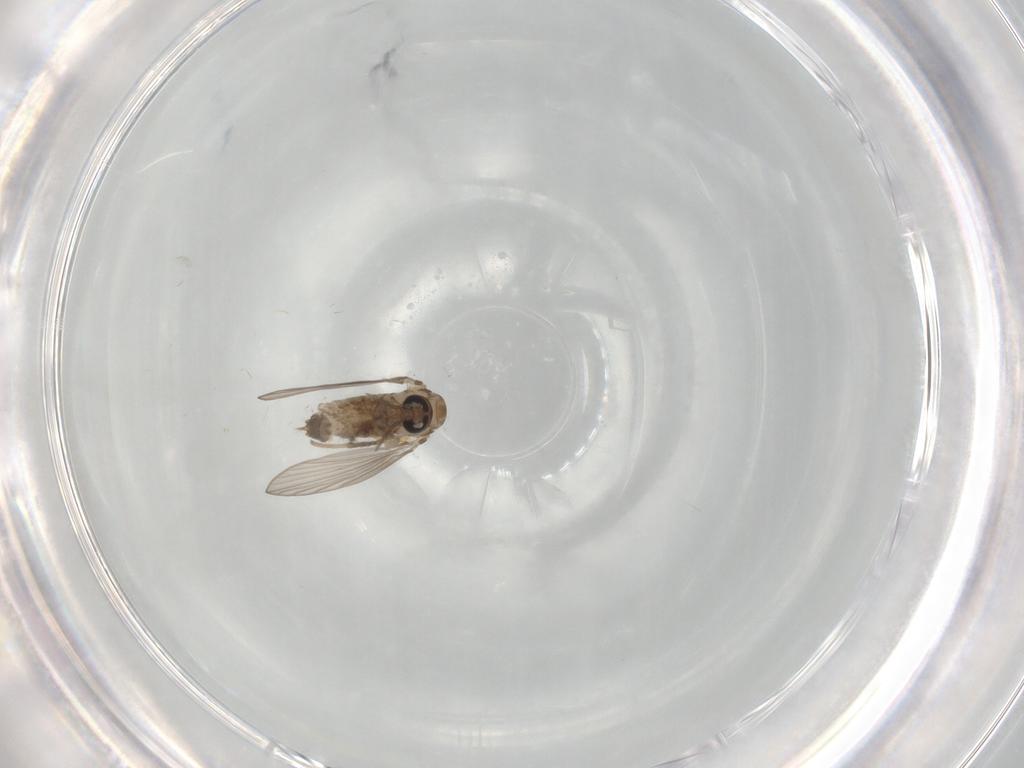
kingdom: Animalia
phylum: Arthropoda
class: Insecta
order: Diptera
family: Psychodidae
